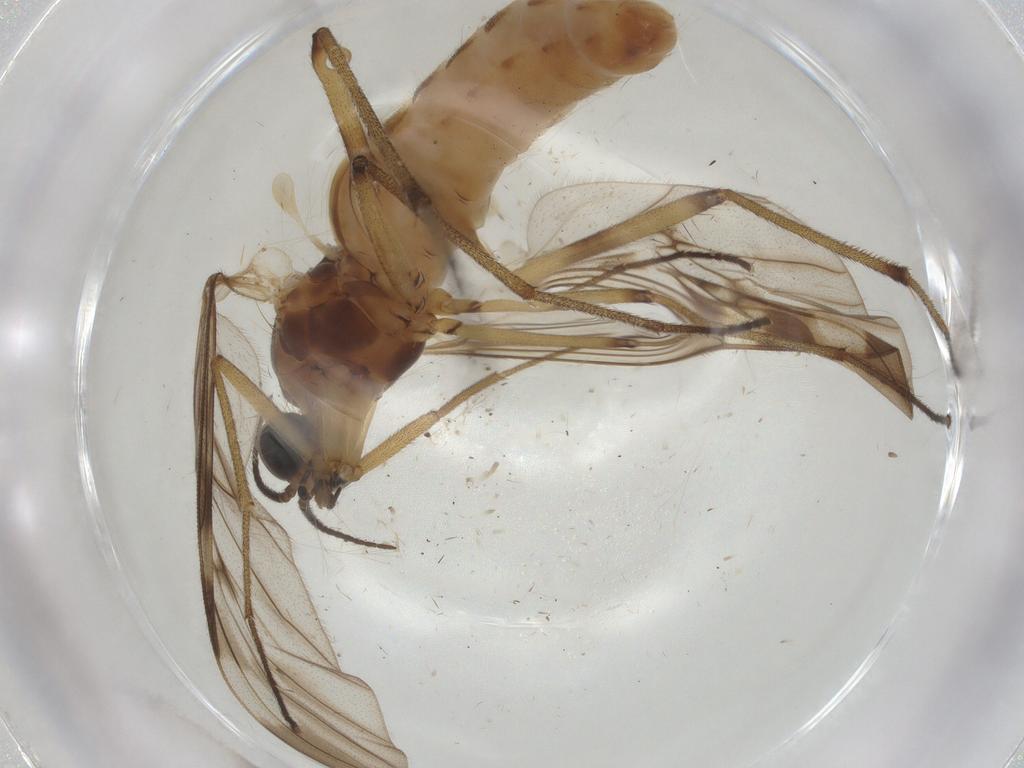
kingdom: Animalia
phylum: Arthropoda
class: Insecta
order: Diptera
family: Anisopodidae
